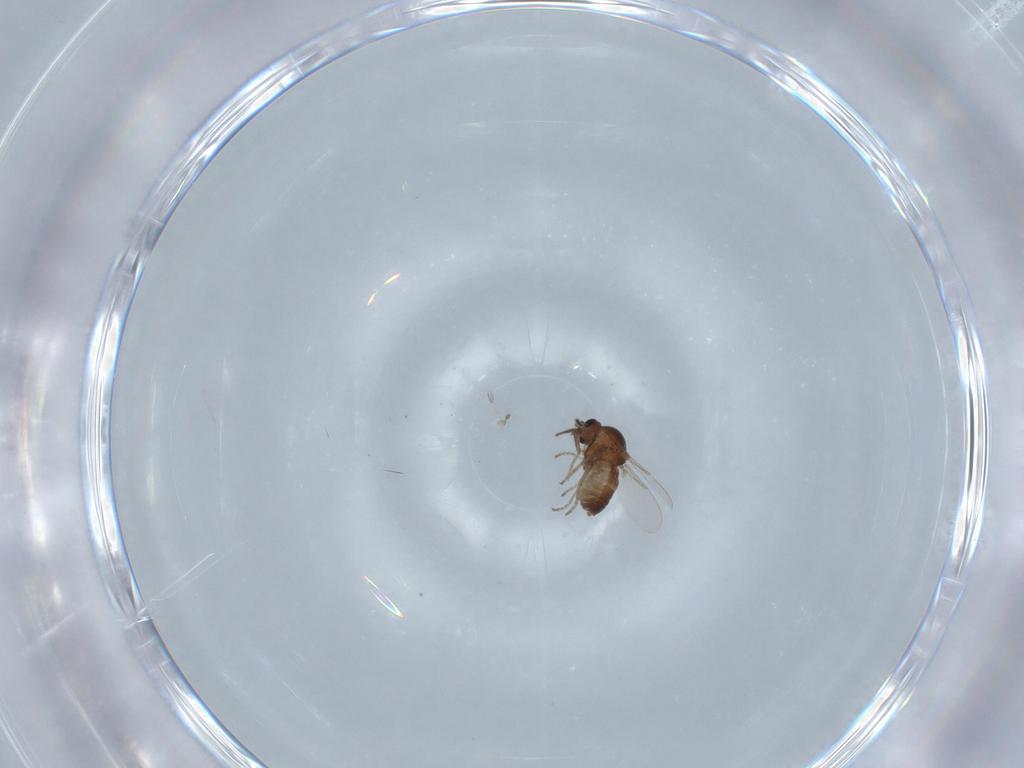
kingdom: Animalia
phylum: Arthropoda
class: Insecta
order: Diptera
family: Ceratopogonidae
